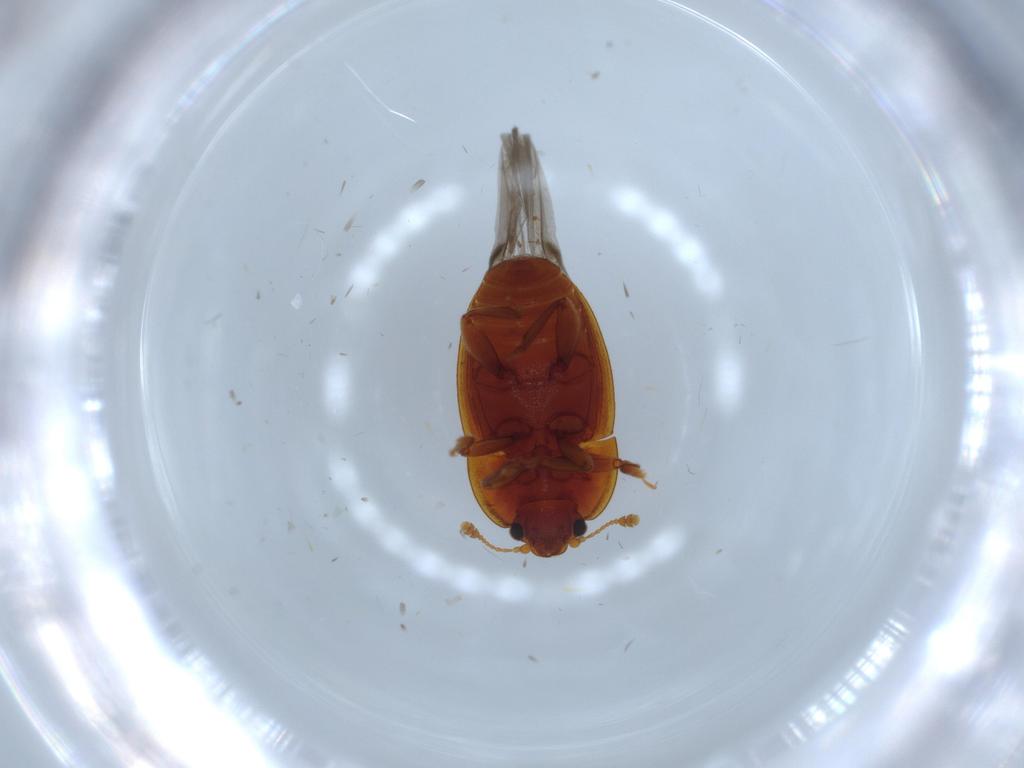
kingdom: Animalia
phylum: Arthropoda
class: Insecta
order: Coleoptera
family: Cantharidae
